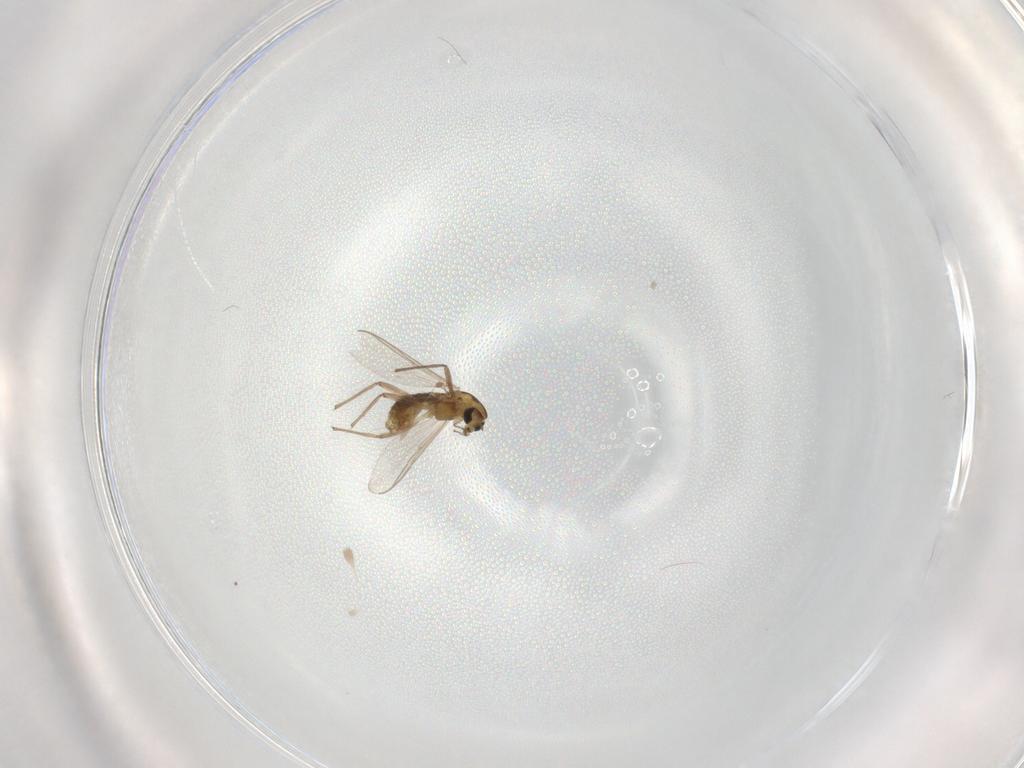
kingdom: Animalia
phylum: Arthropoda
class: Insecta
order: Diptera
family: Chironomidae
